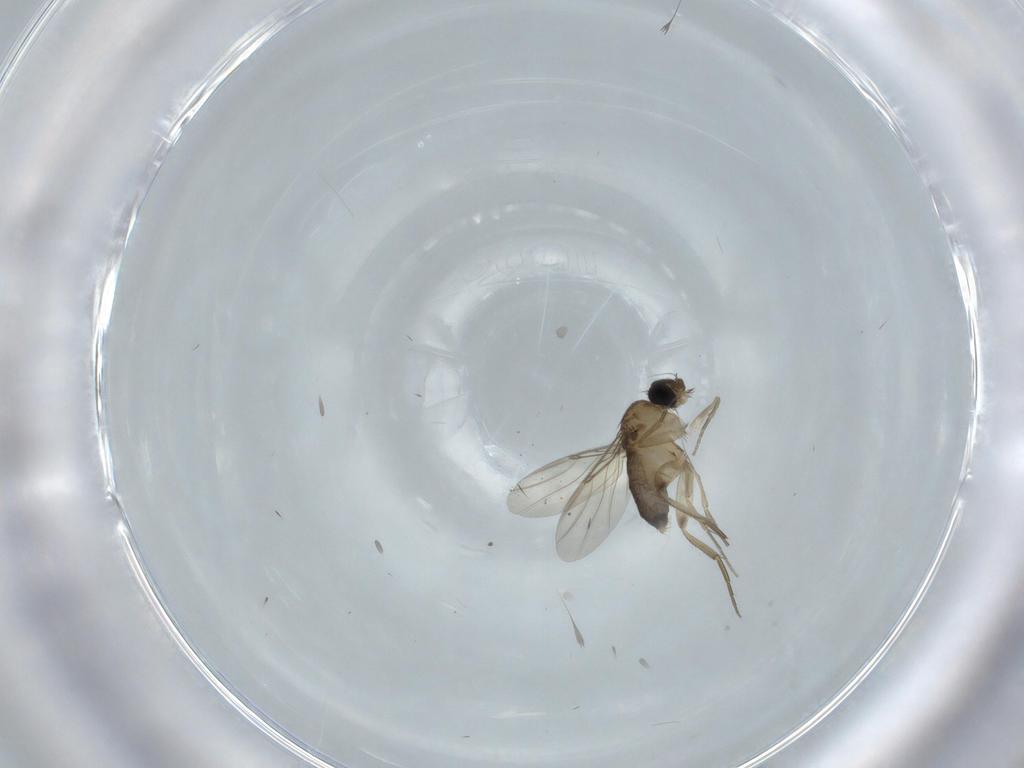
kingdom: Animalia
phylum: Arthropoda
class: Insecta
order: Diptera
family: Phoridae
